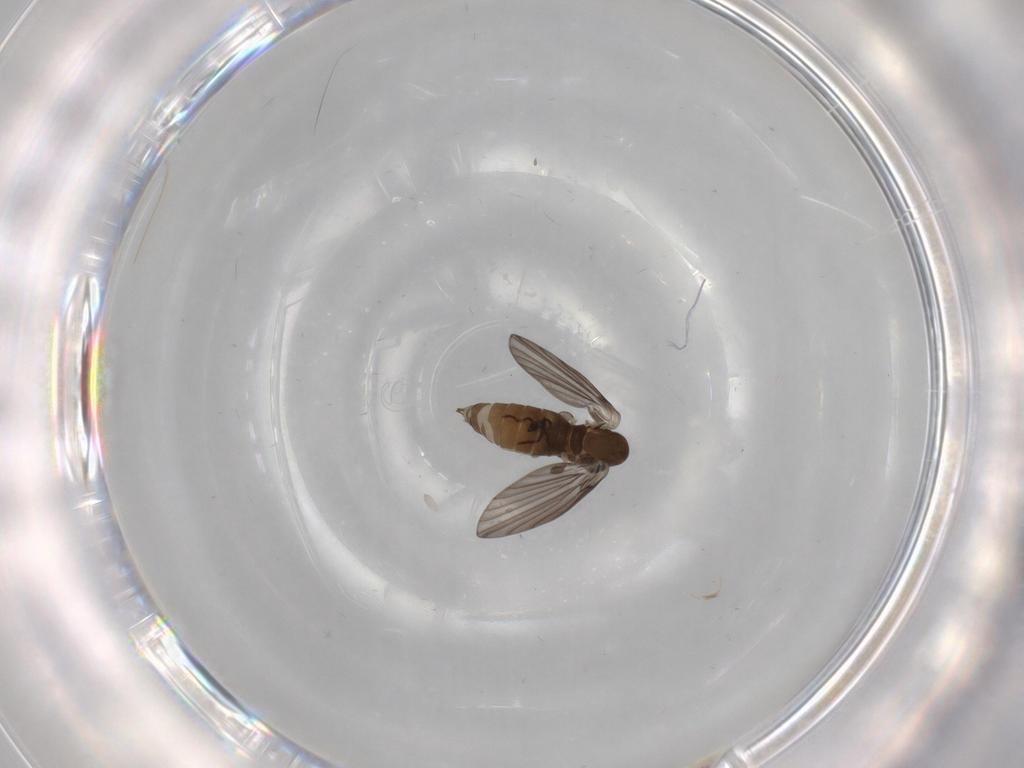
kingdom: Animalia
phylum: Arthropoda
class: Insecta
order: Diptera
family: Psychodidae
